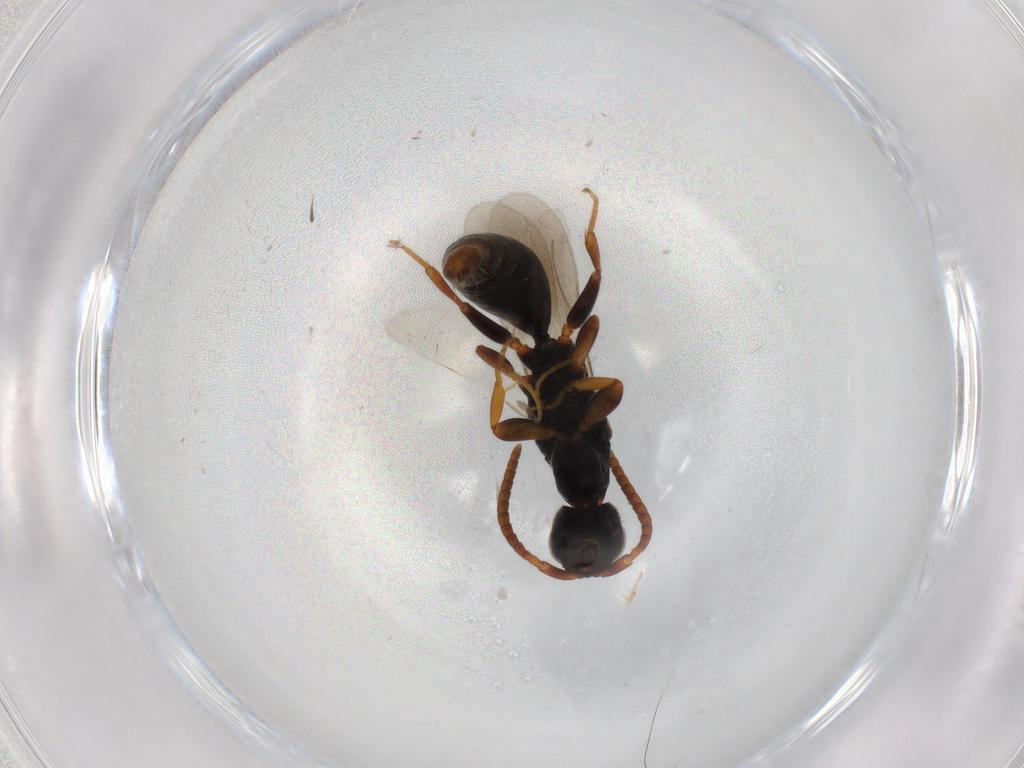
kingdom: Animalia
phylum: Arthropoda
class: Insecta
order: Hymenoptera
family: Bethylidae
